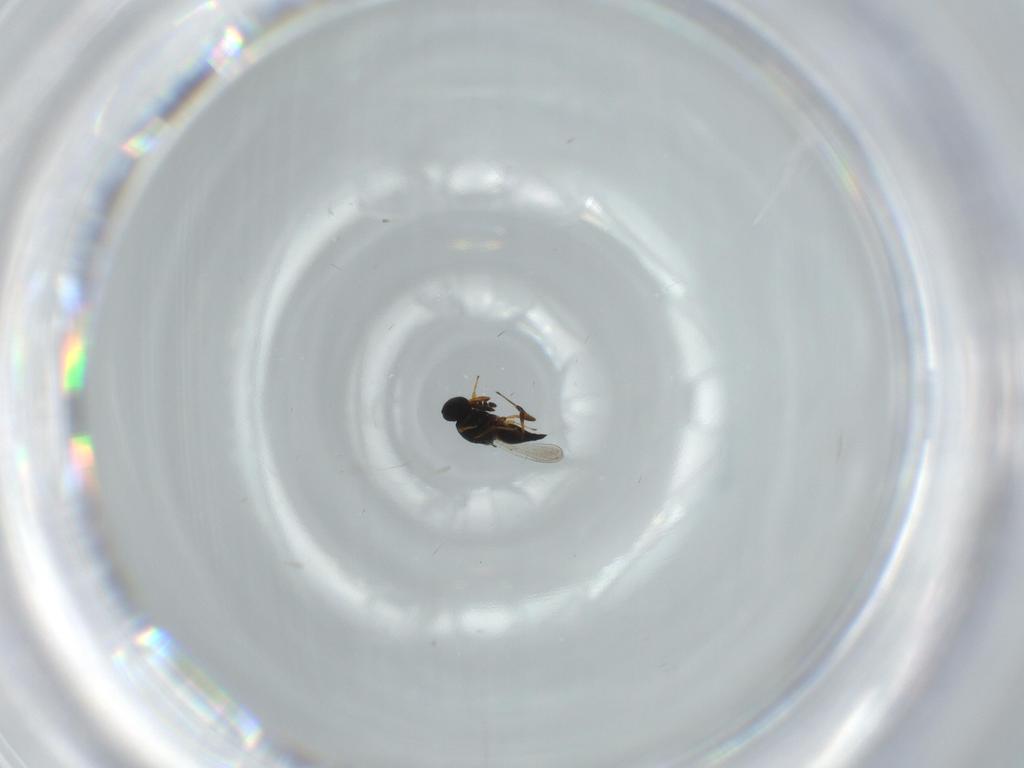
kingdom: Animalia
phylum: Arthropoda
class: Insecta
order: Hymenoptera
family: Platygastridae
